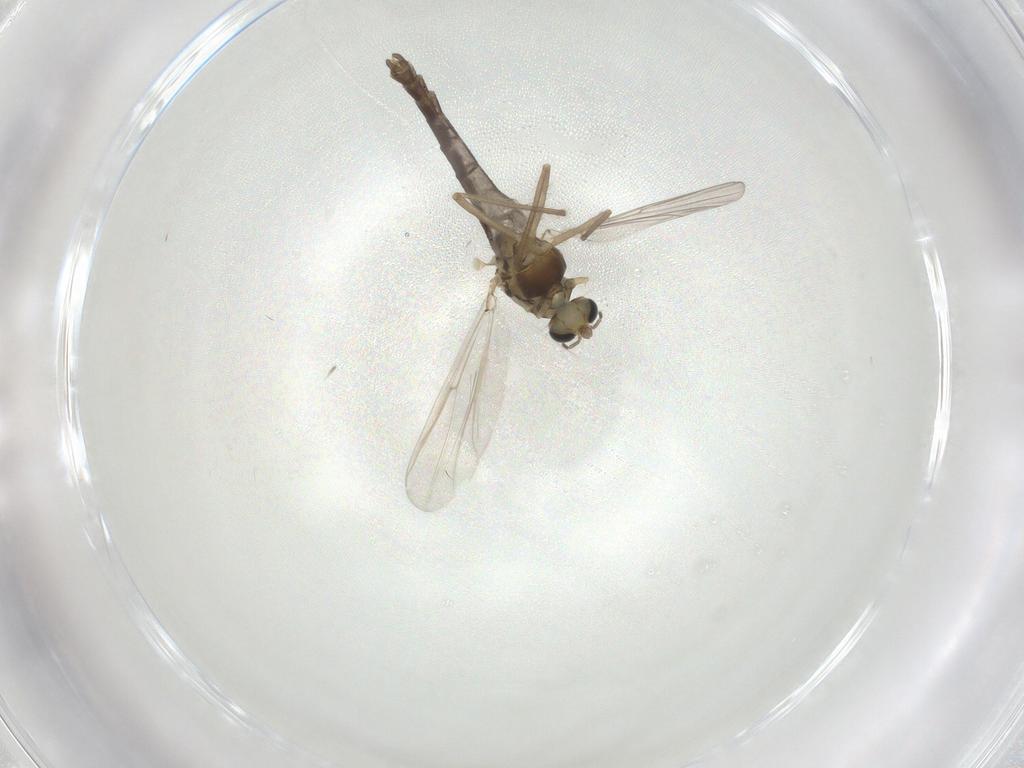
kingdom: Animalia
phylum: Arthropoda
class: Insecta
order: Diptera
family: Chironomidae
